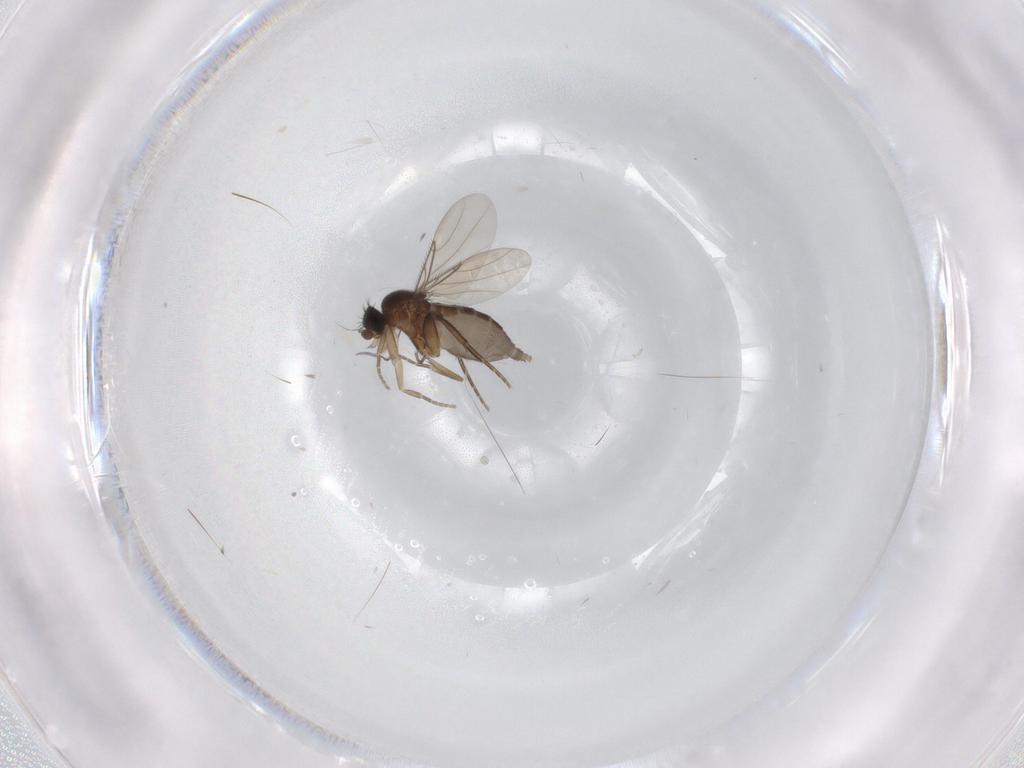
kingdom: Animalia
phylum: Arthropoda
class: Insecta
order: Diptera
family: Phoridae
